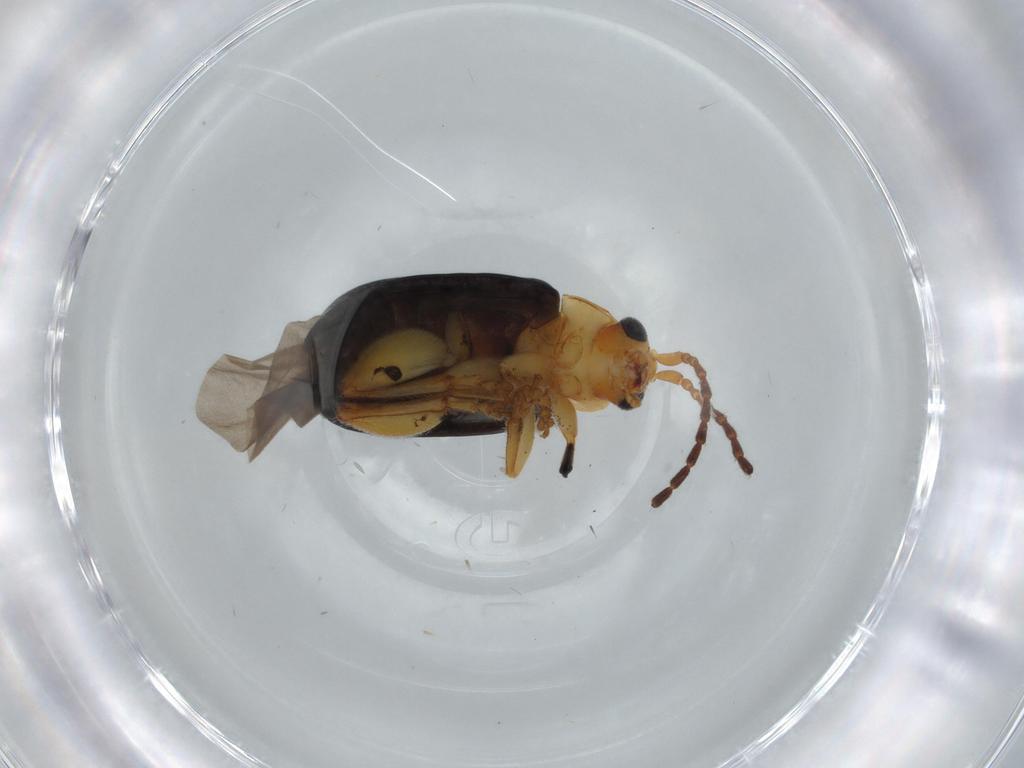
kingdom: Animalia
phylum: Arthropoda
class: Insecta
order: Coleoptera
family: Chrysomelidae
